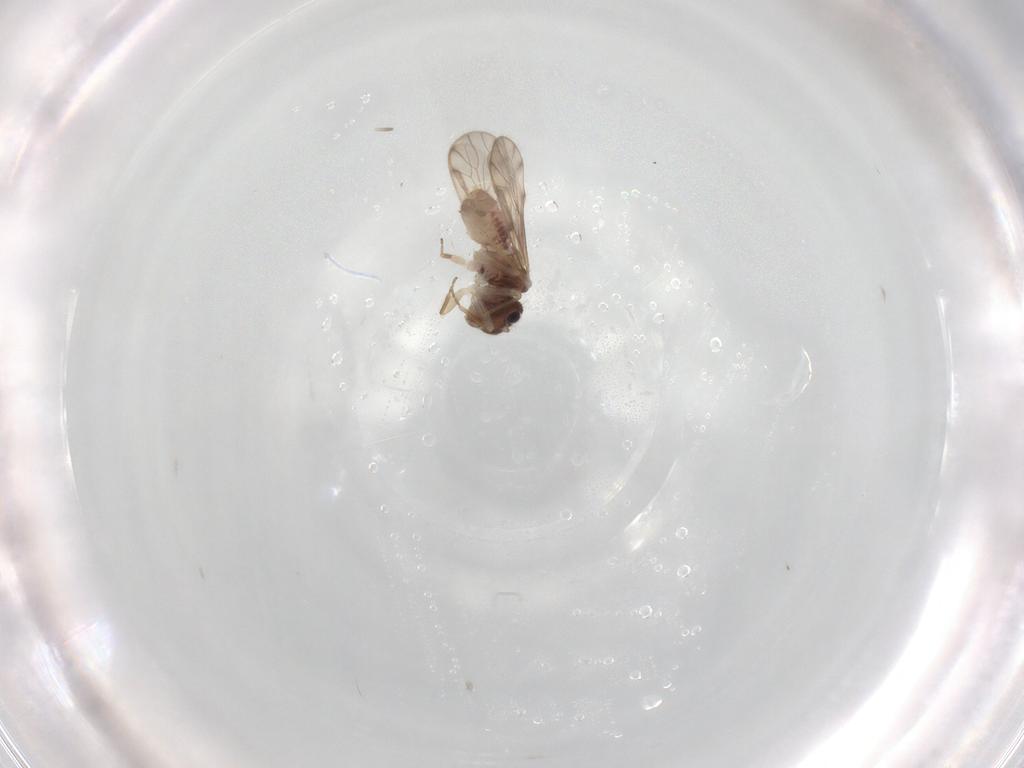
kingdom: Animalia
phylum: Arthropoda
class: Insecta
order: Psocodea
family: Peripsocidae
